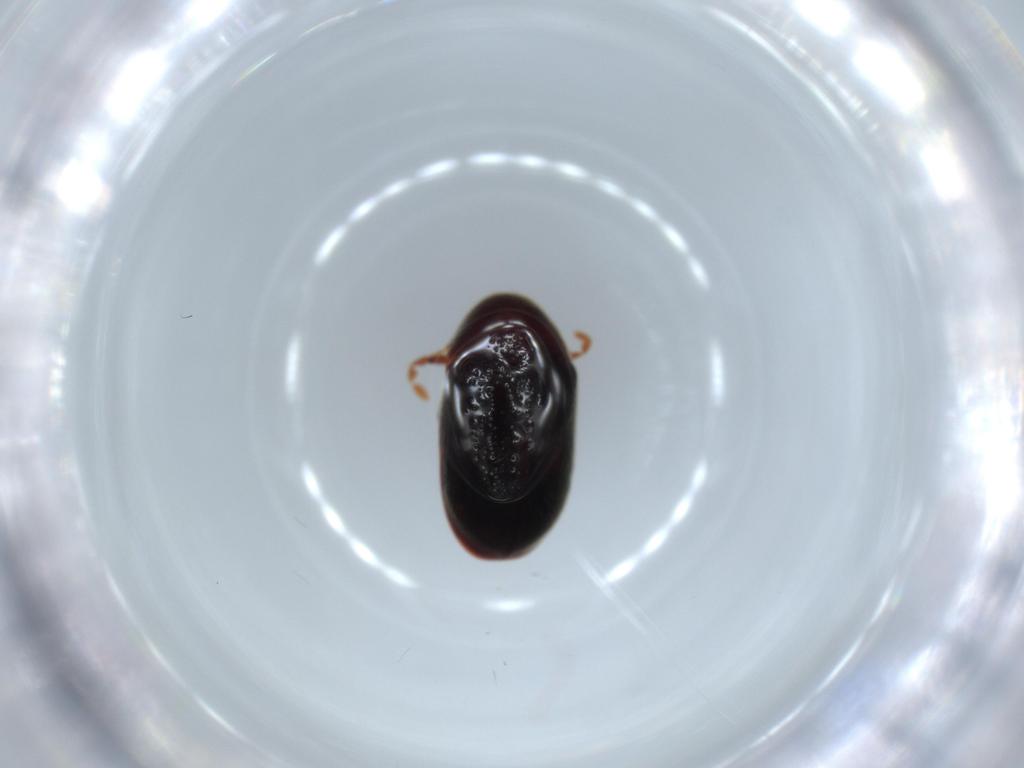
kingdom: Animalia
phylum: Arthropoda
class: Insecta
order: Coleoptera
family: Ptinidae
